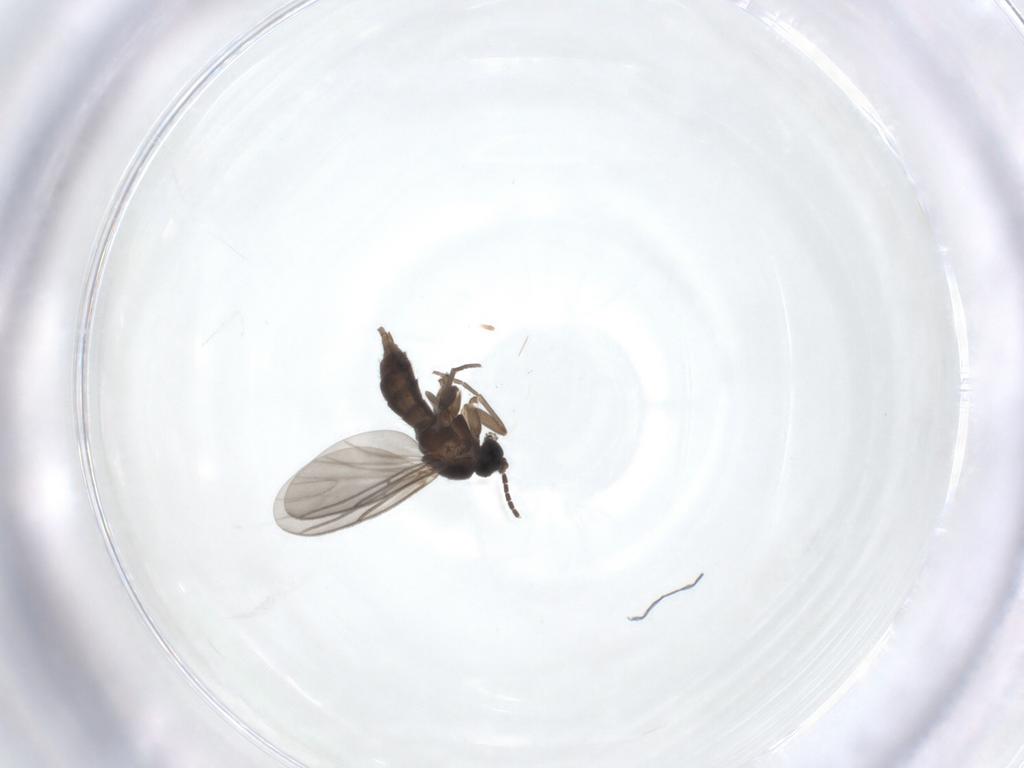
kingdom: Animalia
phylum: Arthropoda
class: Insecta
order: Diptera
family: Sciaridae
